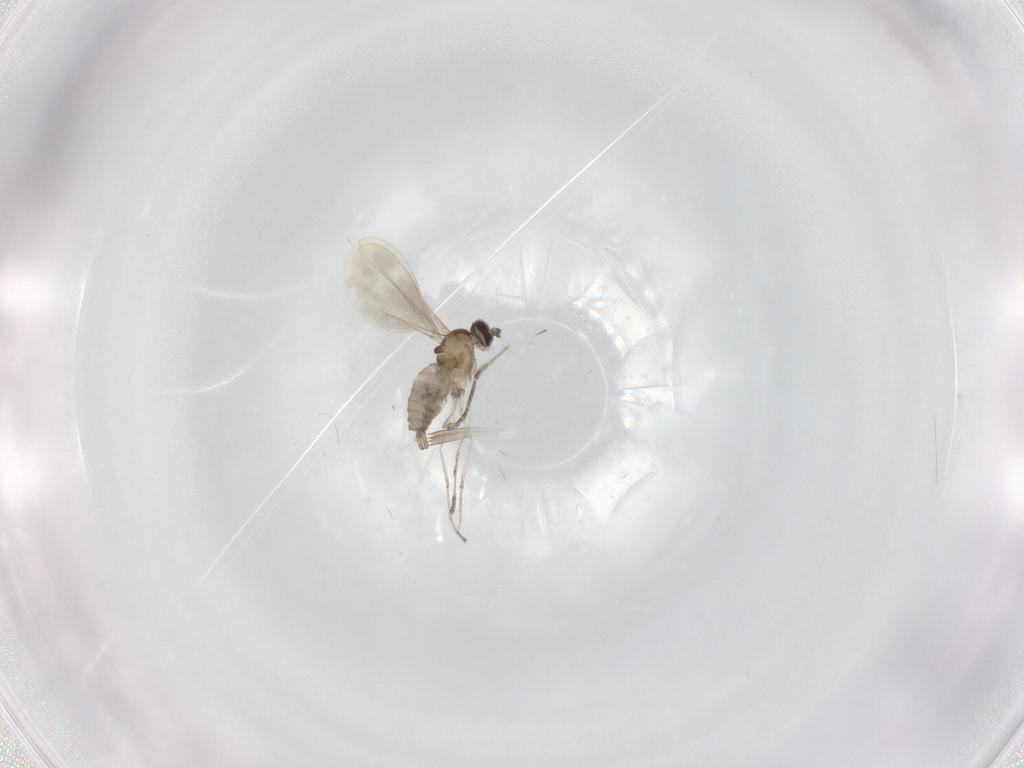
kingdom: Animalia
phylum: Arthropoda
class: Insecta
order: Diptera
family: Cecidomyiidae
